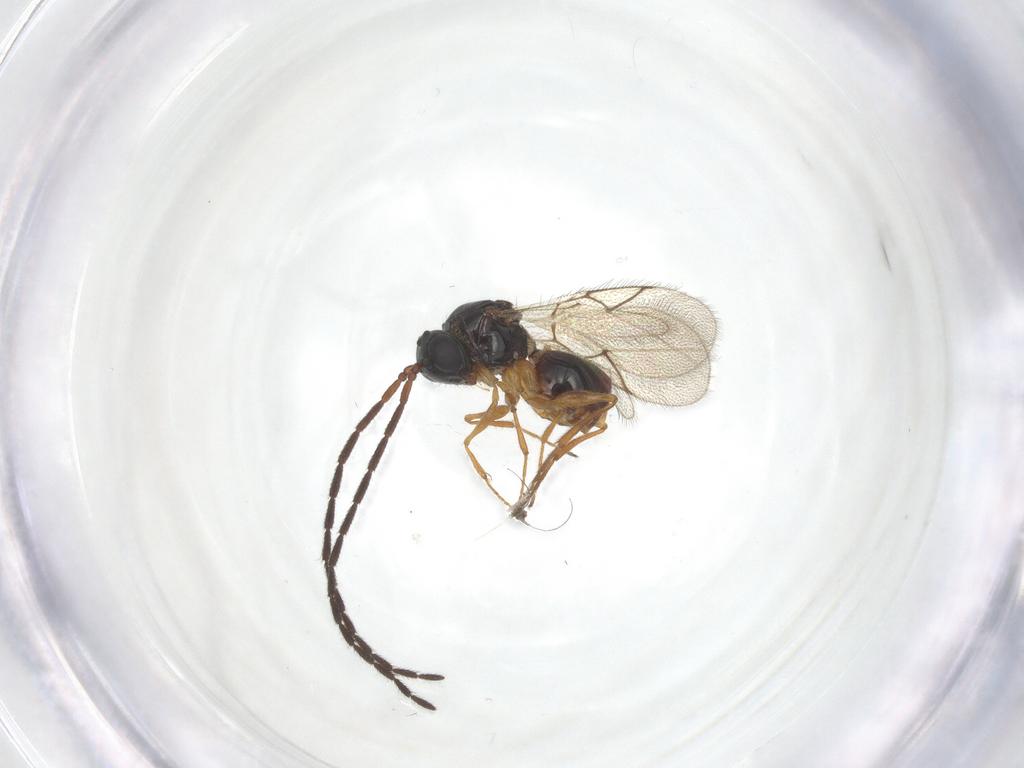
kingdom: Animalia
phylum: Arthropoda
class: Insecta
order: Hymenoptera
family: Figitidae
